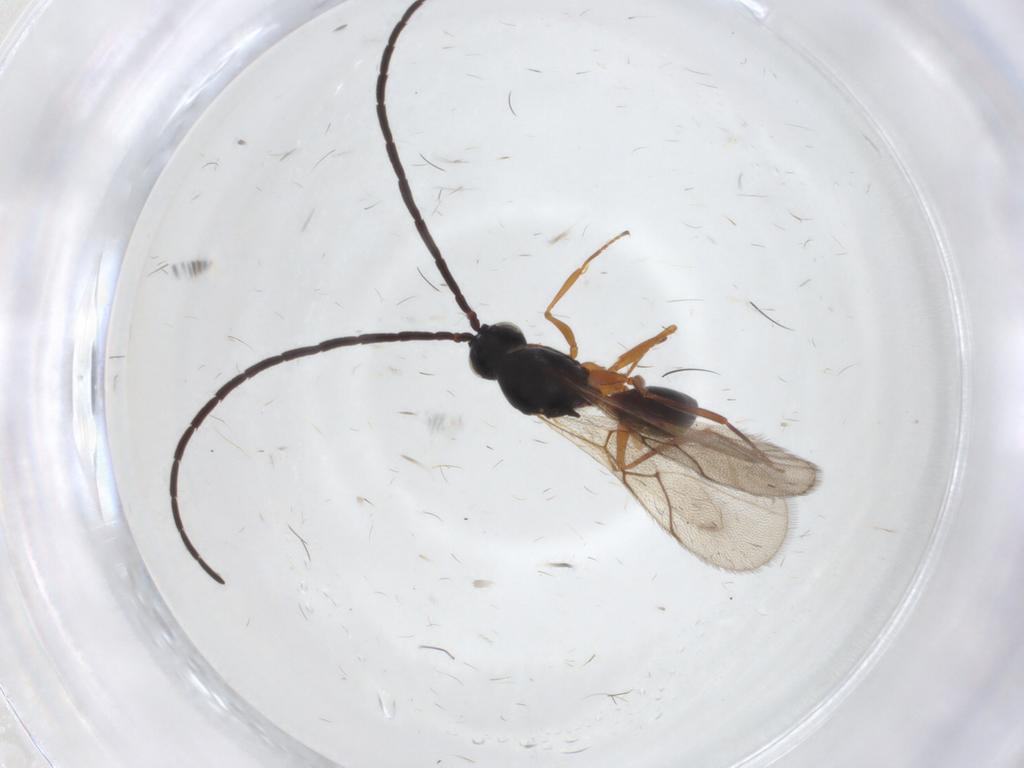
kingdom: Animalia
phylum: Arthropoda
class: Insecta
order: Hymenoptera
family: Figitidae
